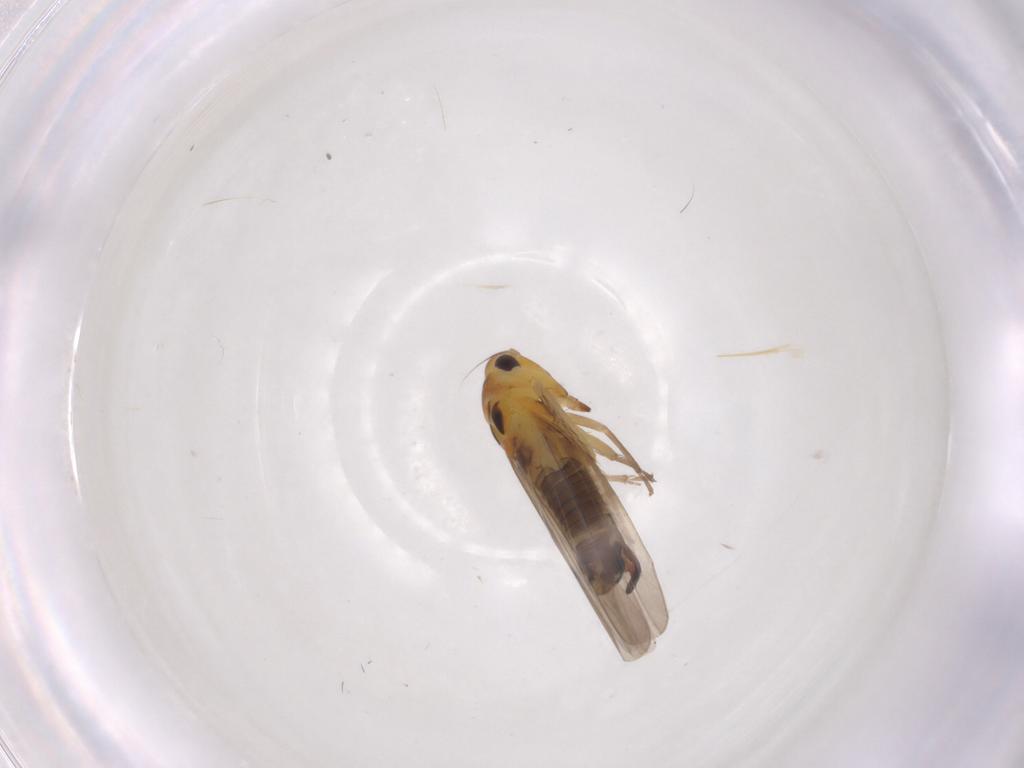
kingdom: Animalia
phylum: Arthropoda
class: Insecta
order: Hemiptera
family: Cicadellidae
